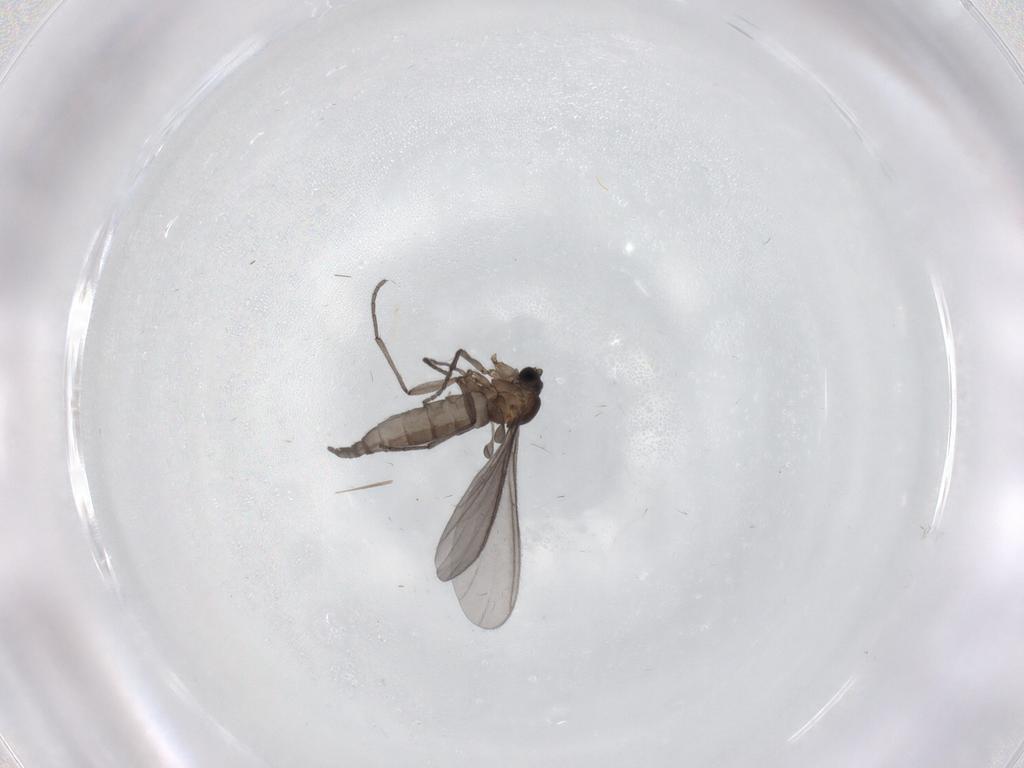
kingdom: Animalia
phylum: Arthropoda
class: Insecta
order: Diptera
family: Sciaridae
